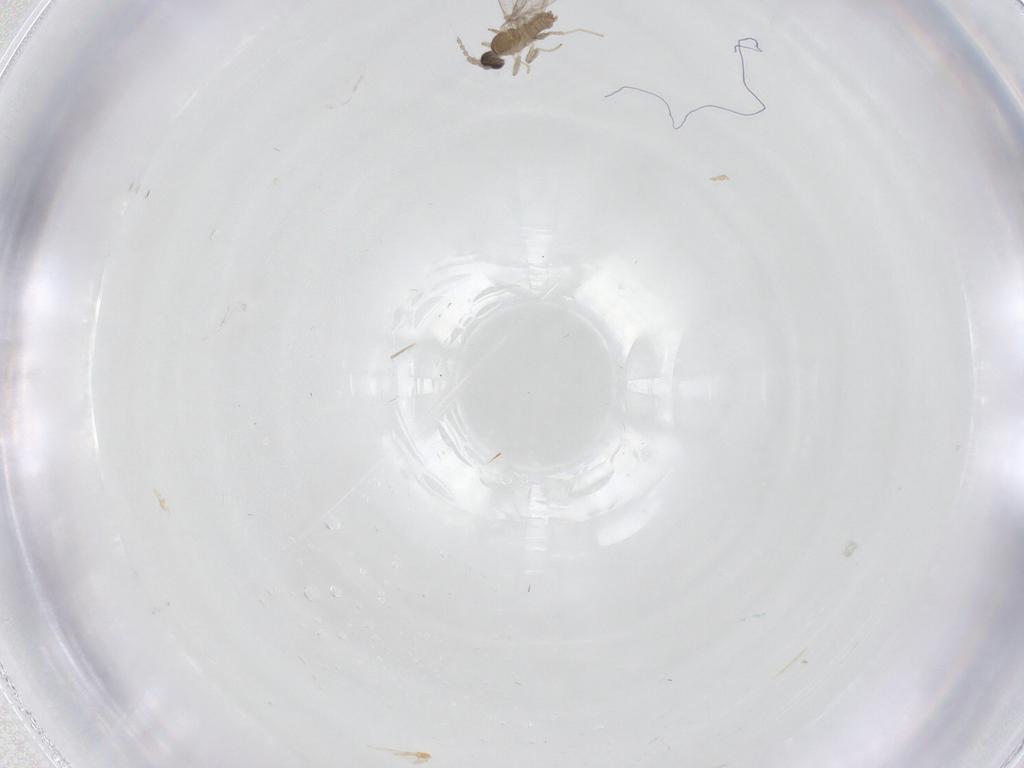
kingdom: Animalia
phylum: Arthropoda
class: Insecta
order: Diptera
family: Cecidomyiidae
